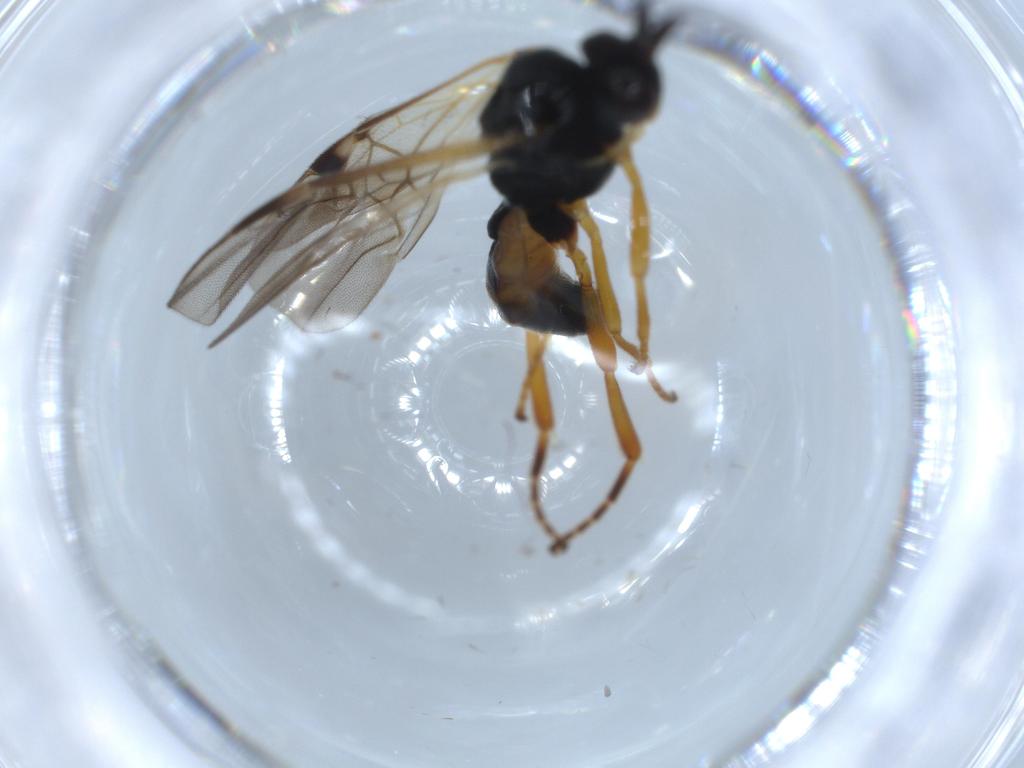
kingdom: Animalia
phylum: Arthropoda
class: Insecta
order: Hymenoptera
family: Braconidae
